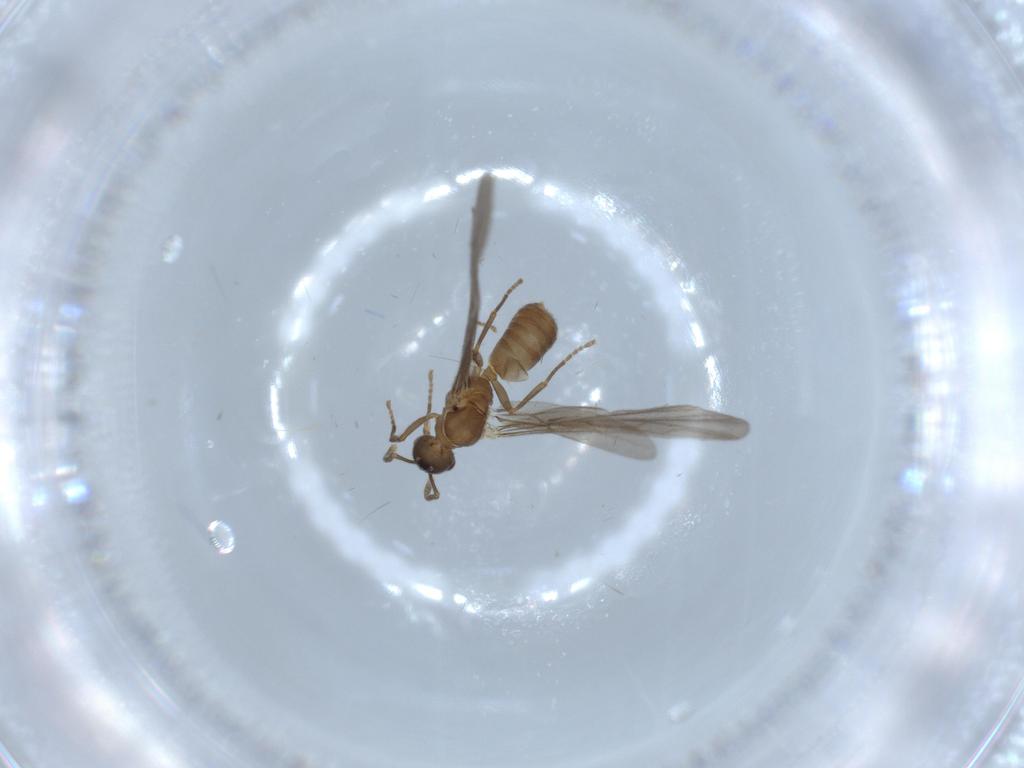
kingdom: Animalia
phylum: Arthropoda
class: Insecta
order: Hymenoptera
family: Formicidae
